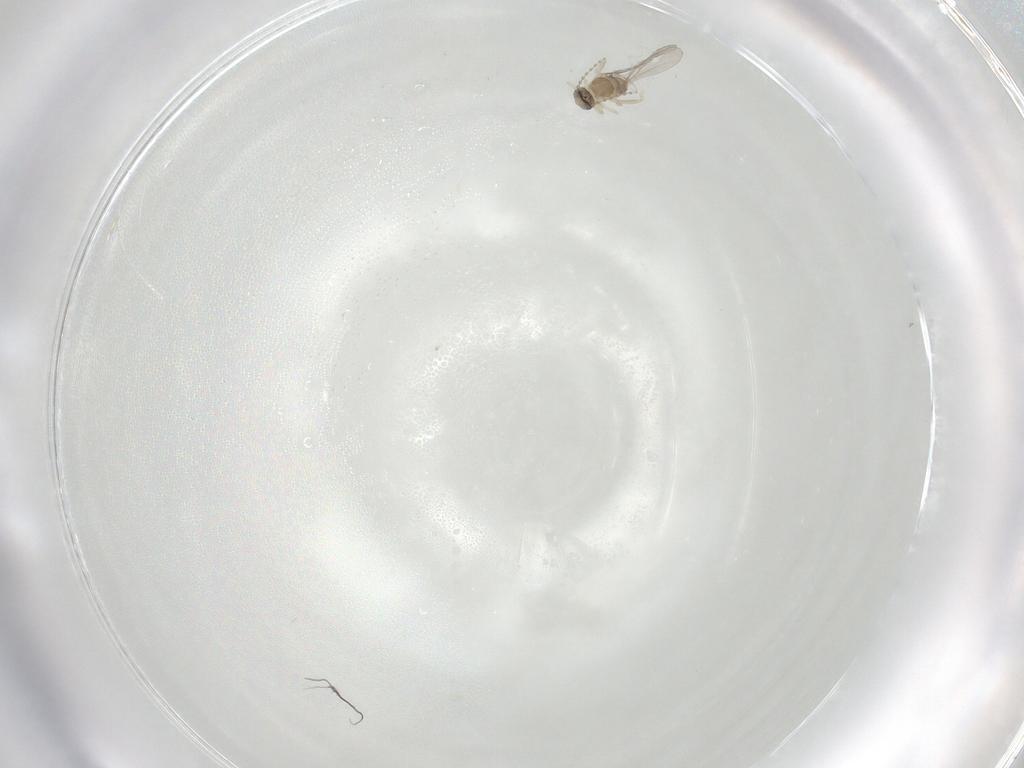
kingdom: Animalia
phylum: Arthropoda
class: Insecta
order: Diptera
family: Cecidomyiidae
